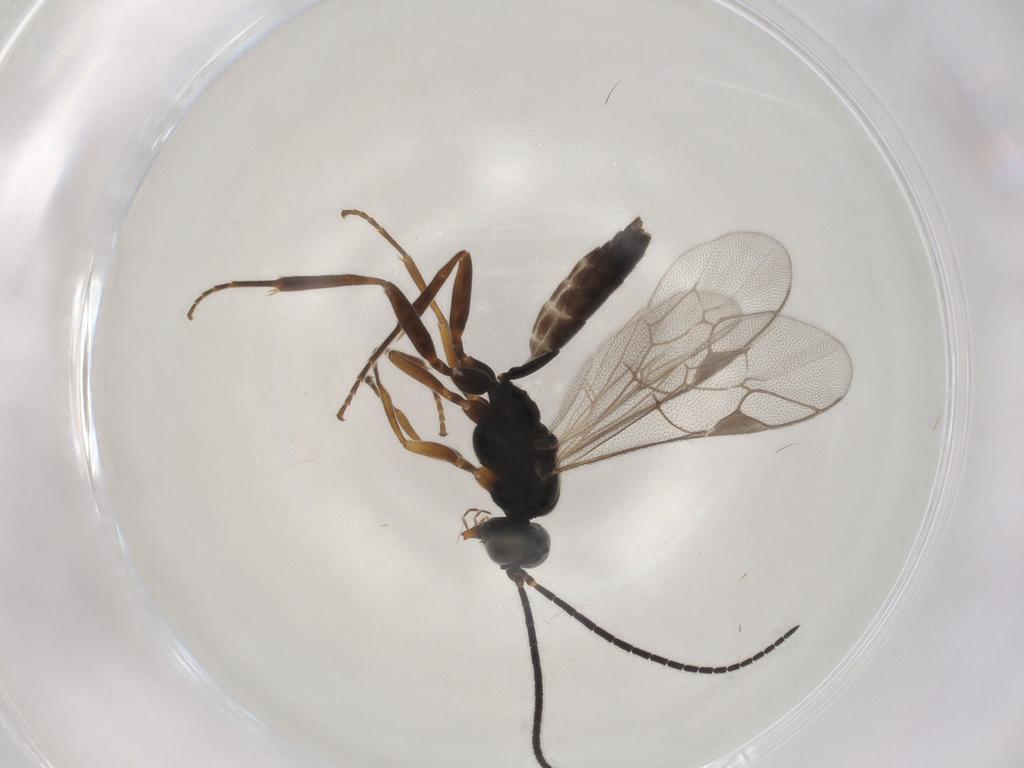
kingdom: Animalia
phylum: Arthropoda
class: Insecta
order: Hymenoptera
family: Ichneumonidae
